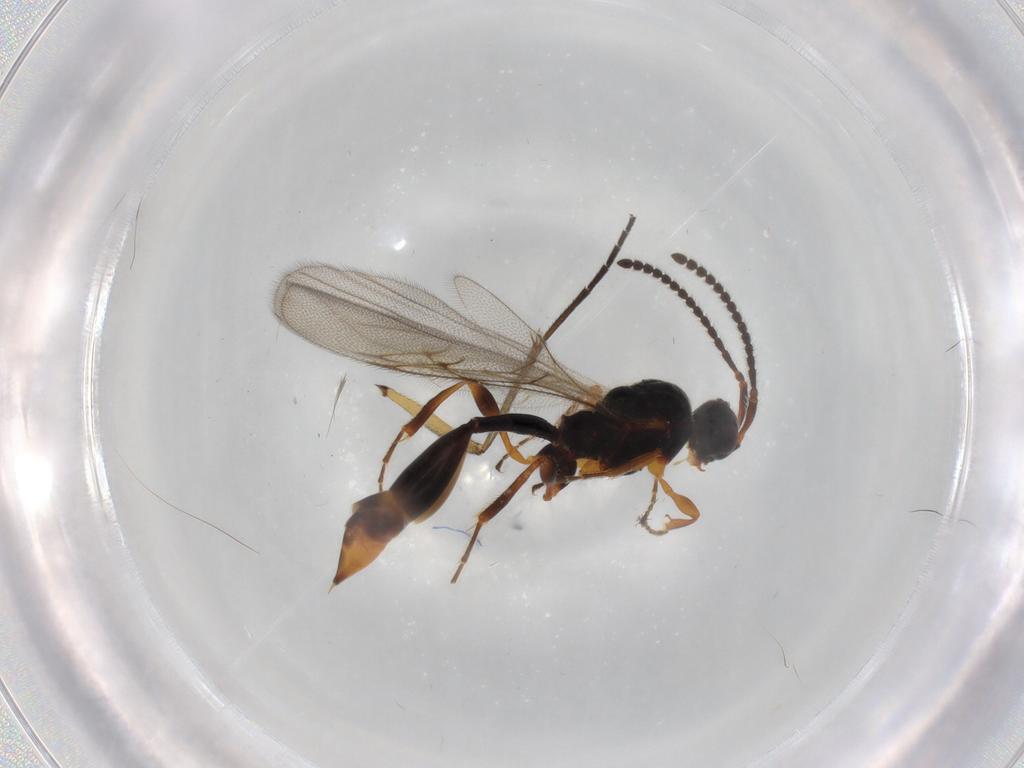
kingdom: Animalia
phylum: Arthropoda
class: Insecta
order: Hymenoptera
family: Diapriidae
